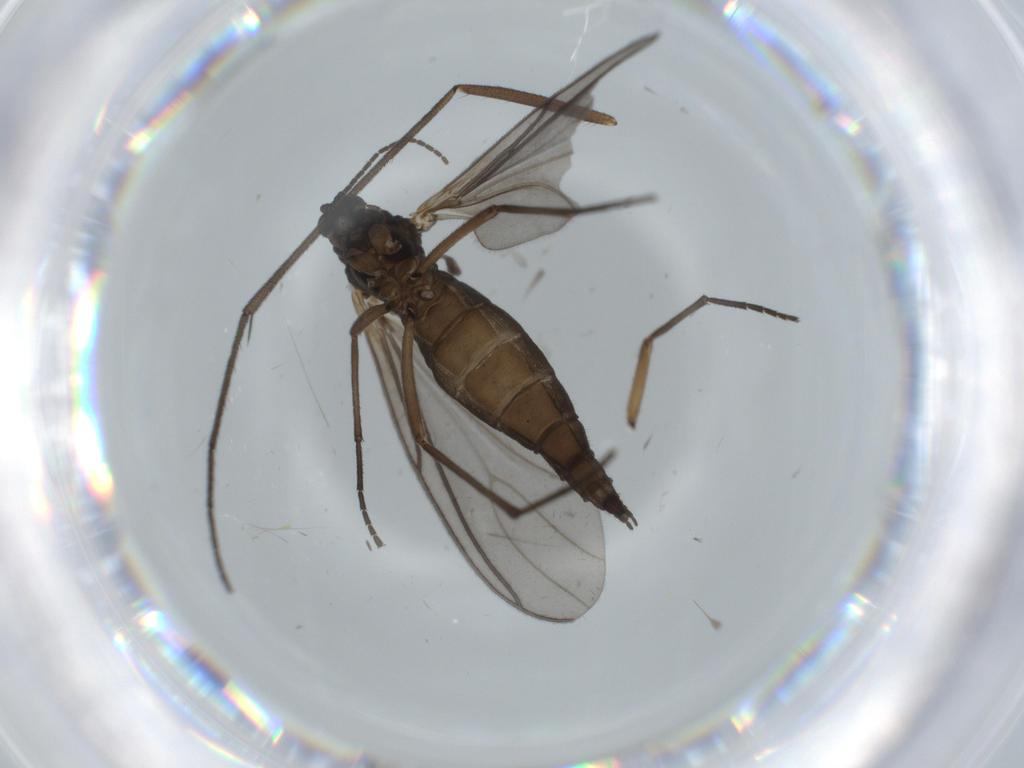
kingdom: Animalia
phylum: Arthropoda
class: Insecta
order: Diptera
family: Sciaridae
